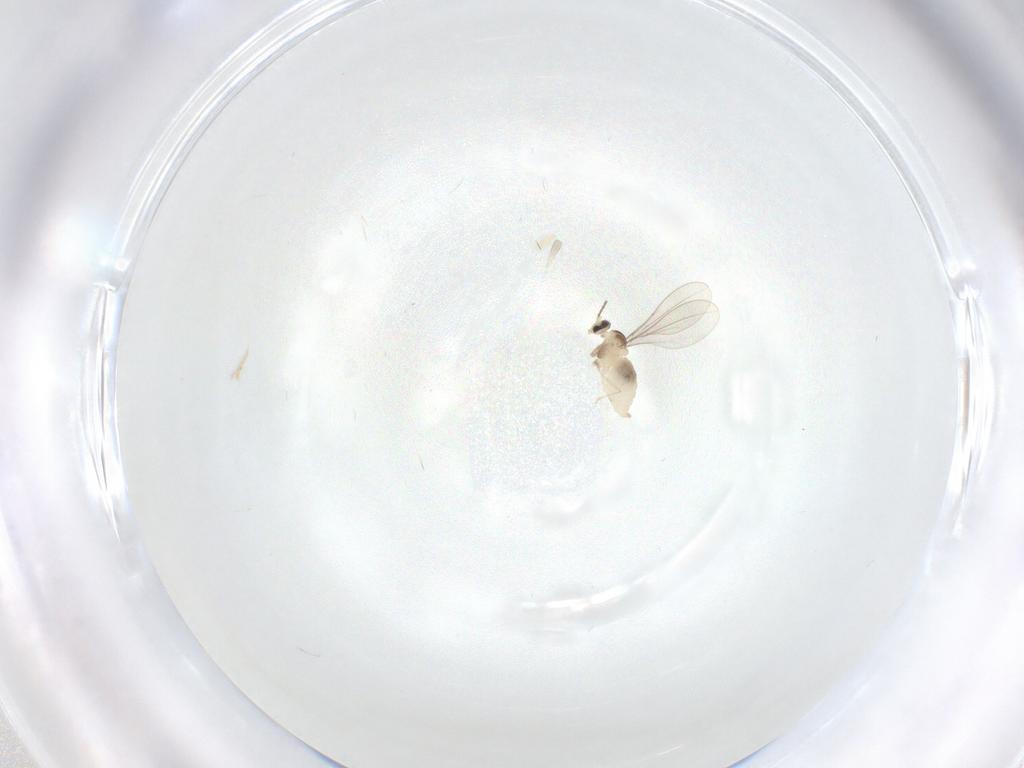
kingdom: Animalia
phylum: Arthropoda
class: Insecta
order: Diptera
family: Cecidomyiidae
